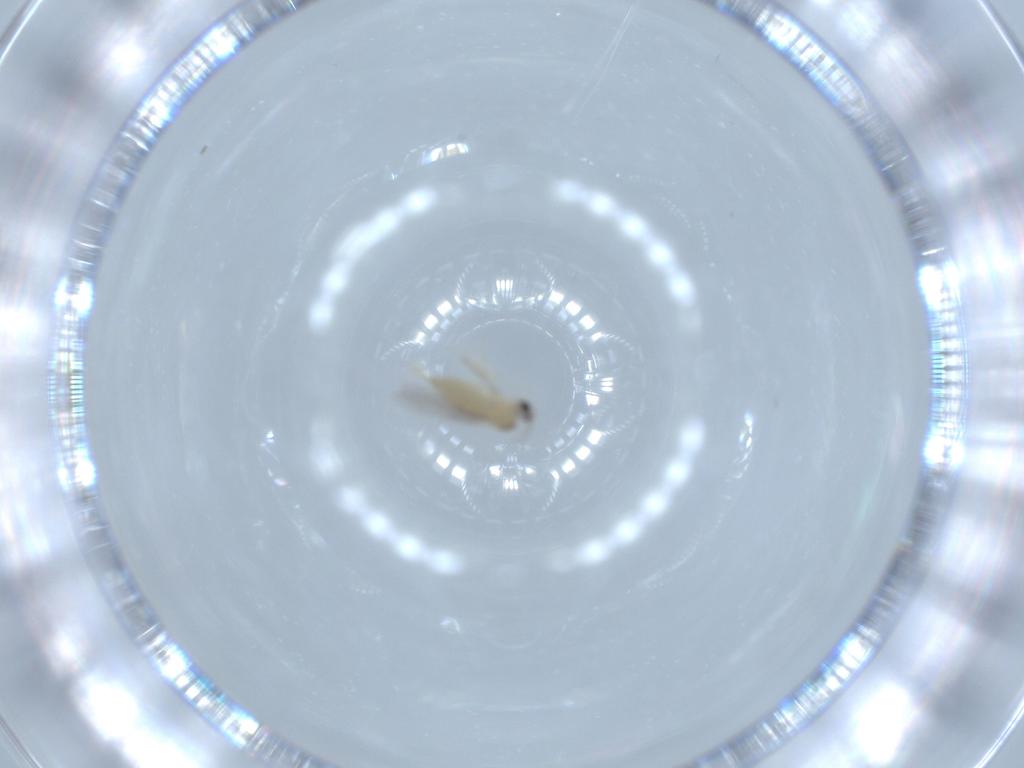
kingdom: Animalia
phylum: Arthropoda
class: Insecta
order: Diptera
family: Cecidomyiidae
